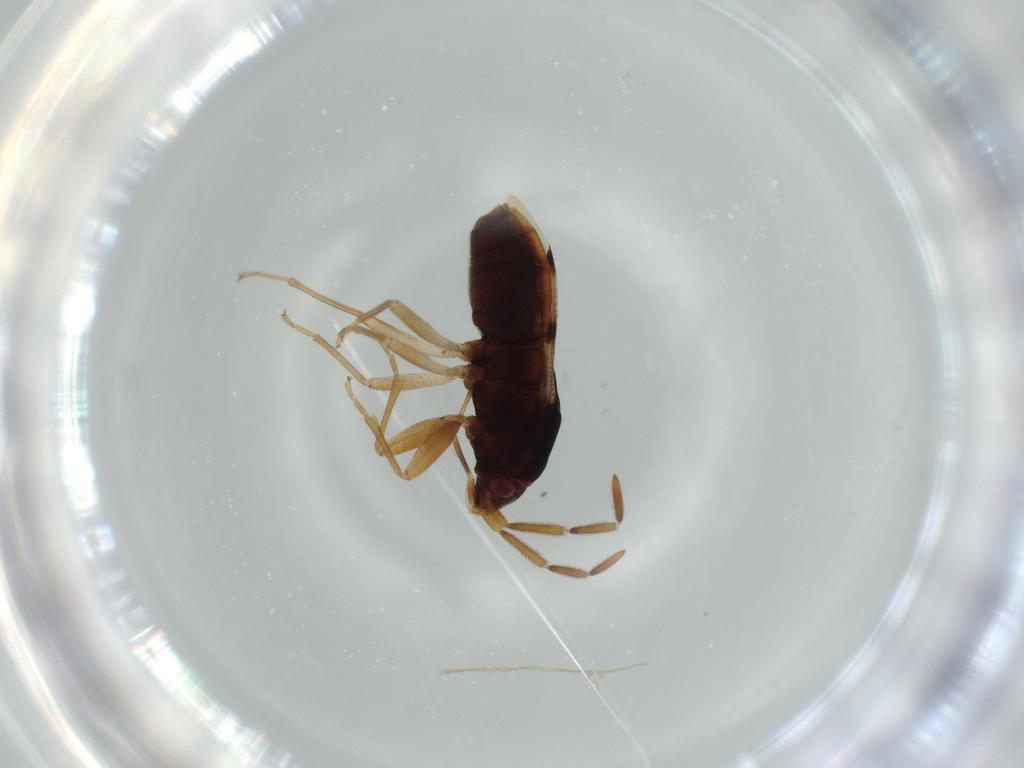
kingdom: Animalia
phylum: Arthropoda
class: Insecta
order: Hemiptera
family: Rhyparochromidae
